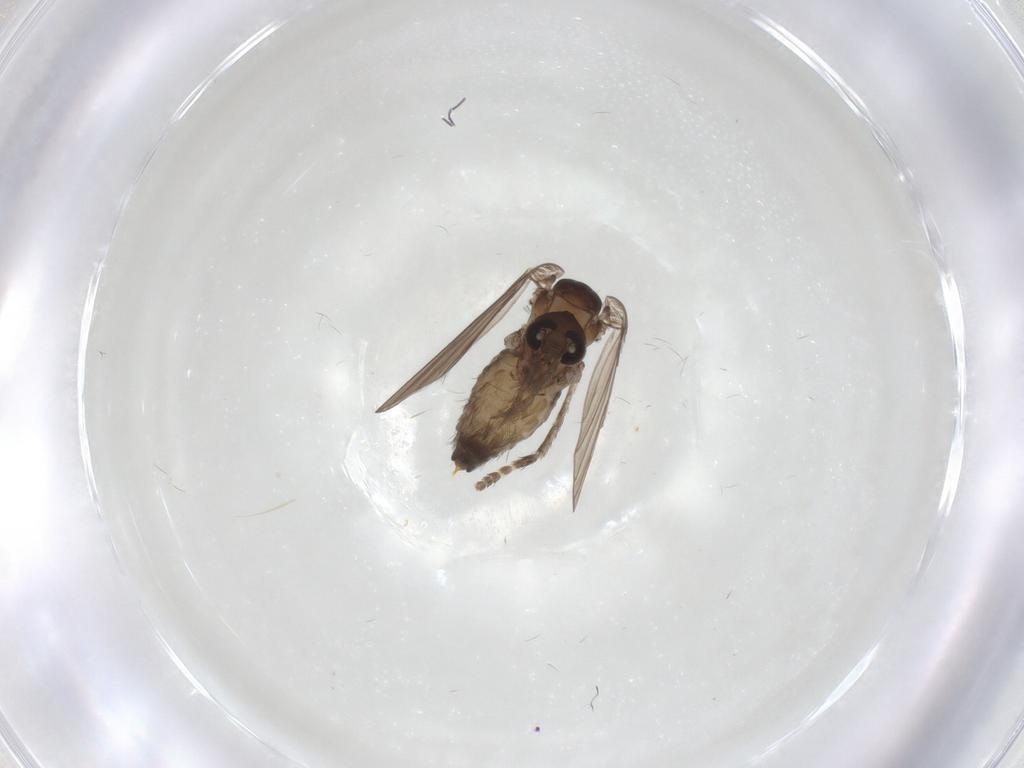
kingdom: Animalia
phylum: Arthropoda
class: Insecta
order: Diptera
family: Psychodidae
